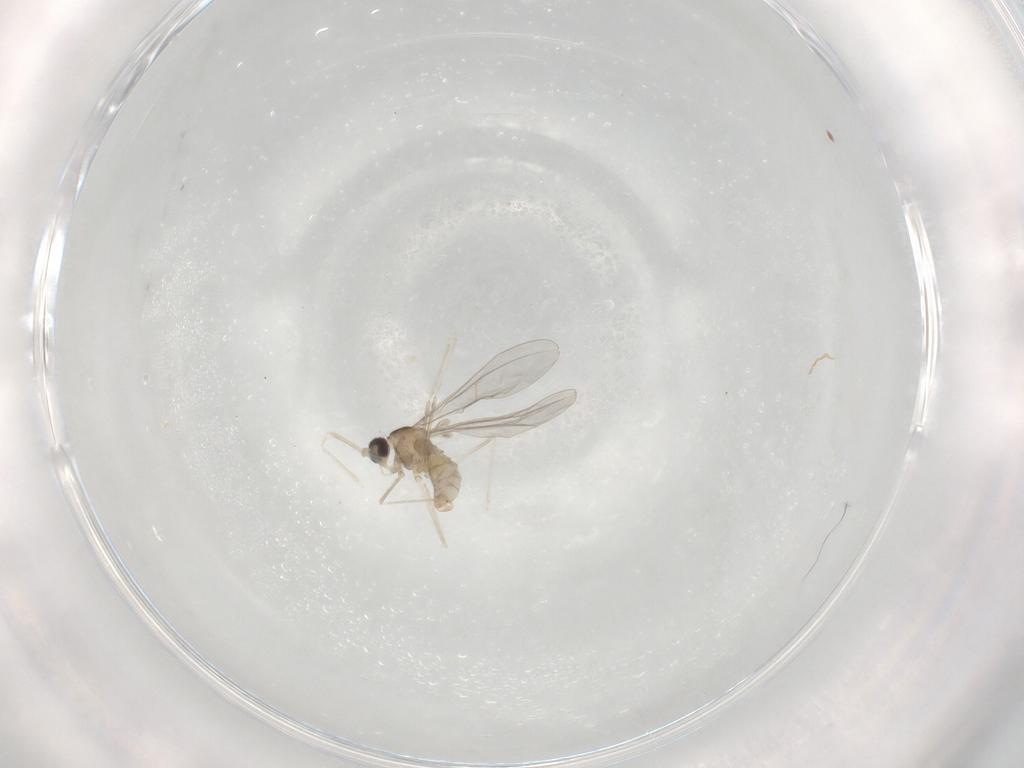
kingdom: Animalia
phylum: Arthropoda
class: Insecta
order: Diptera
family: Cecidomyiidae
